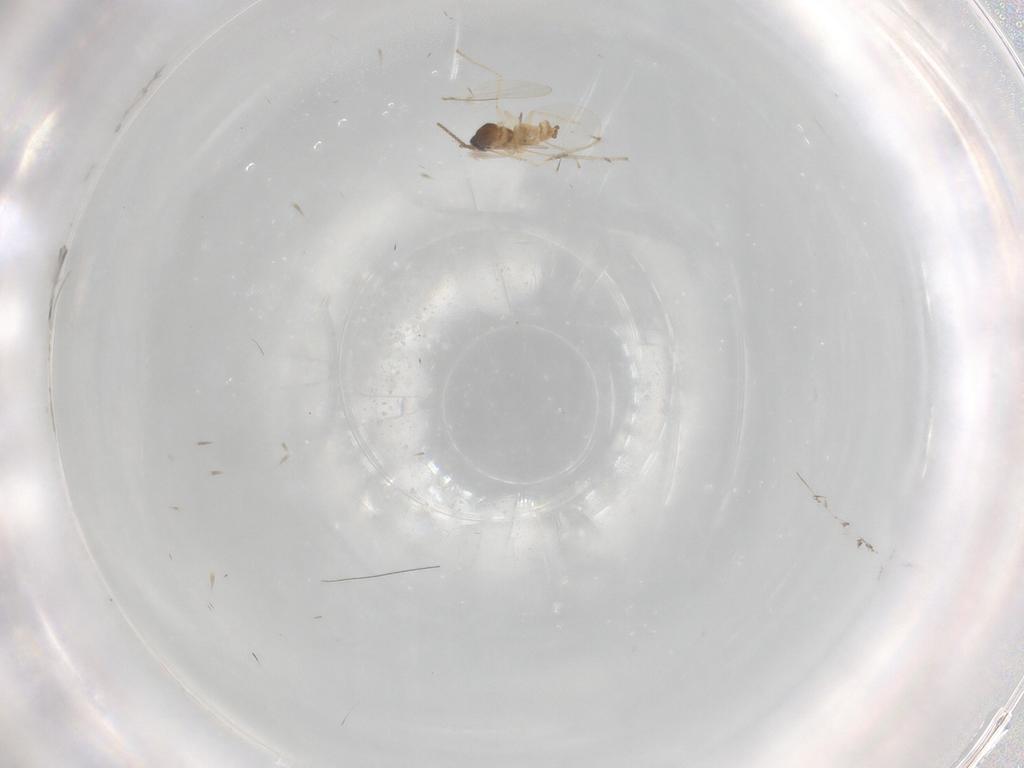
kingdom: Animalia
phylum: Arthropoda
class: Insecta
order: Diptera
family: Cecidomyiidae
